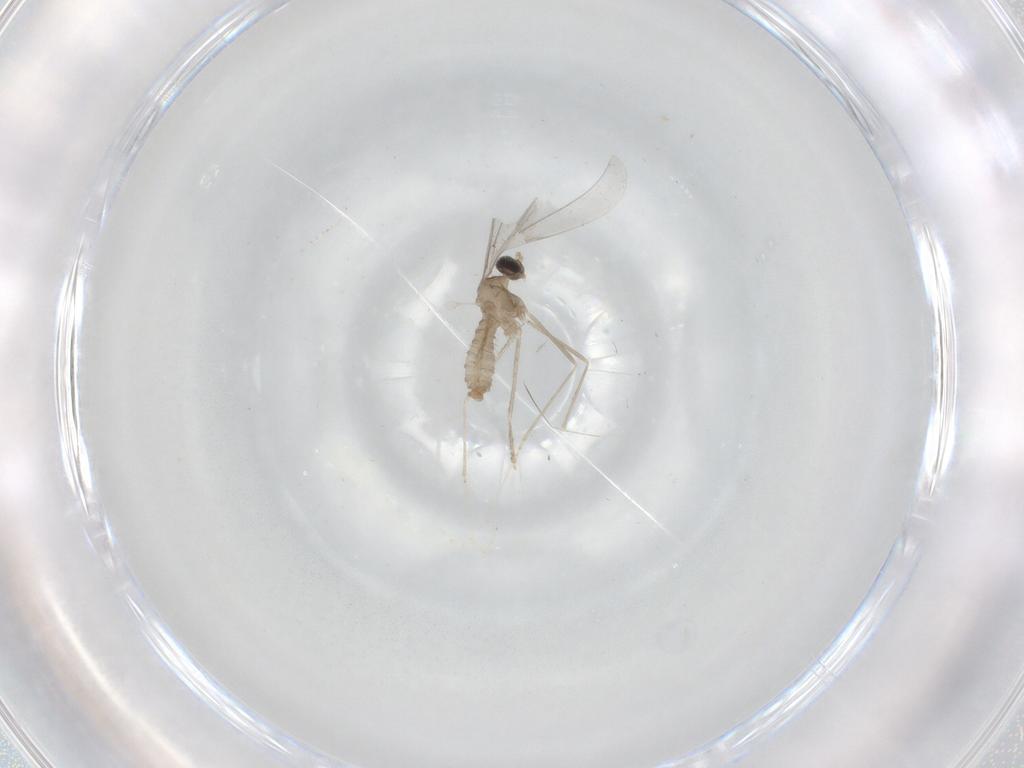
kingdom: Animalia
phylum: Arthropoda
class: Insecta
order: Diptera
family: Cecidomyiidae
